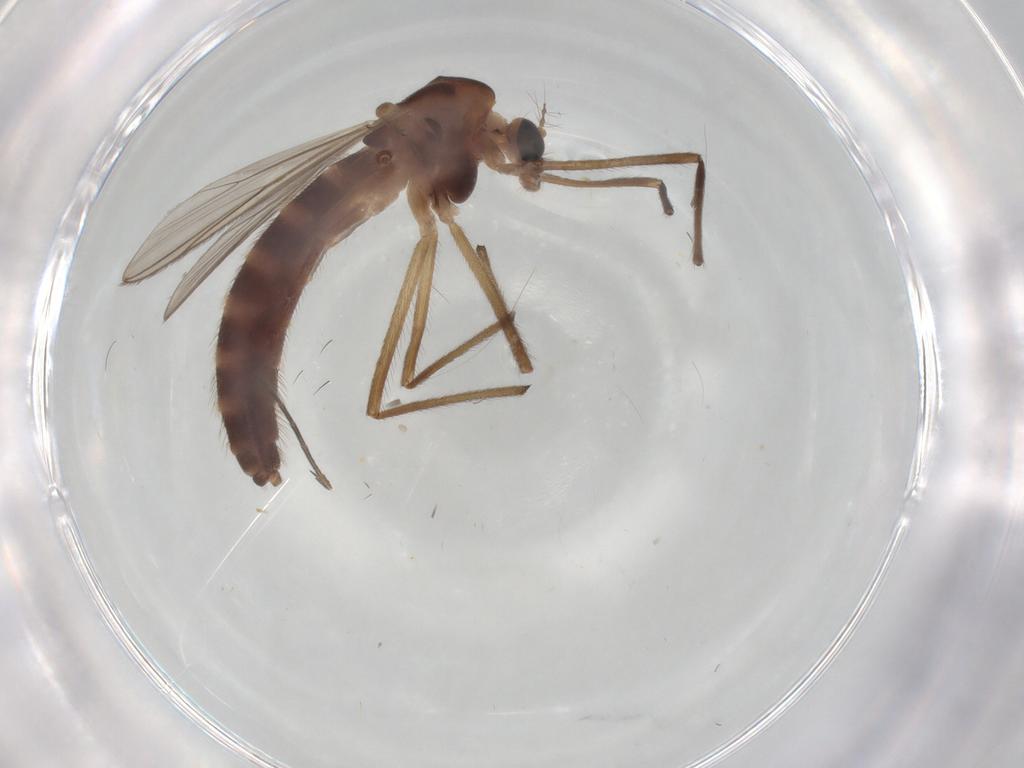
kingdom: Animalia
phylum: Arthropoda
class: Insecta
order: Diptera
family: Chironomidae
